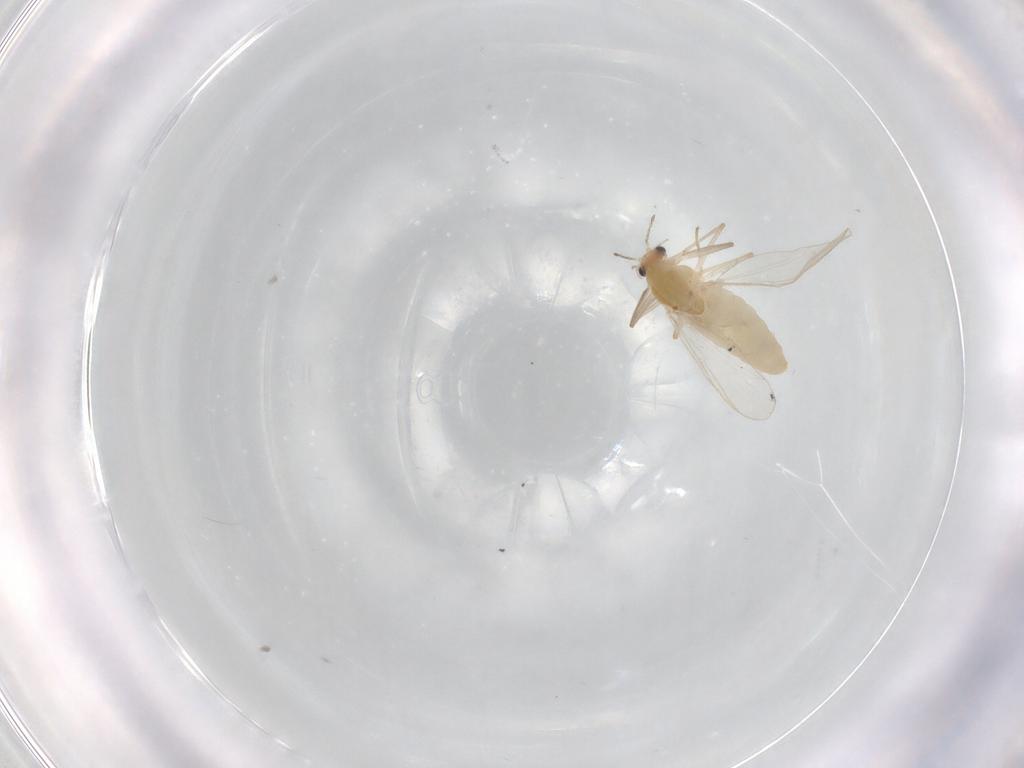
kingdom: Animalia
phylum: Arthropoda
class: Insecta
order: Diptera
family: Chironomidae
